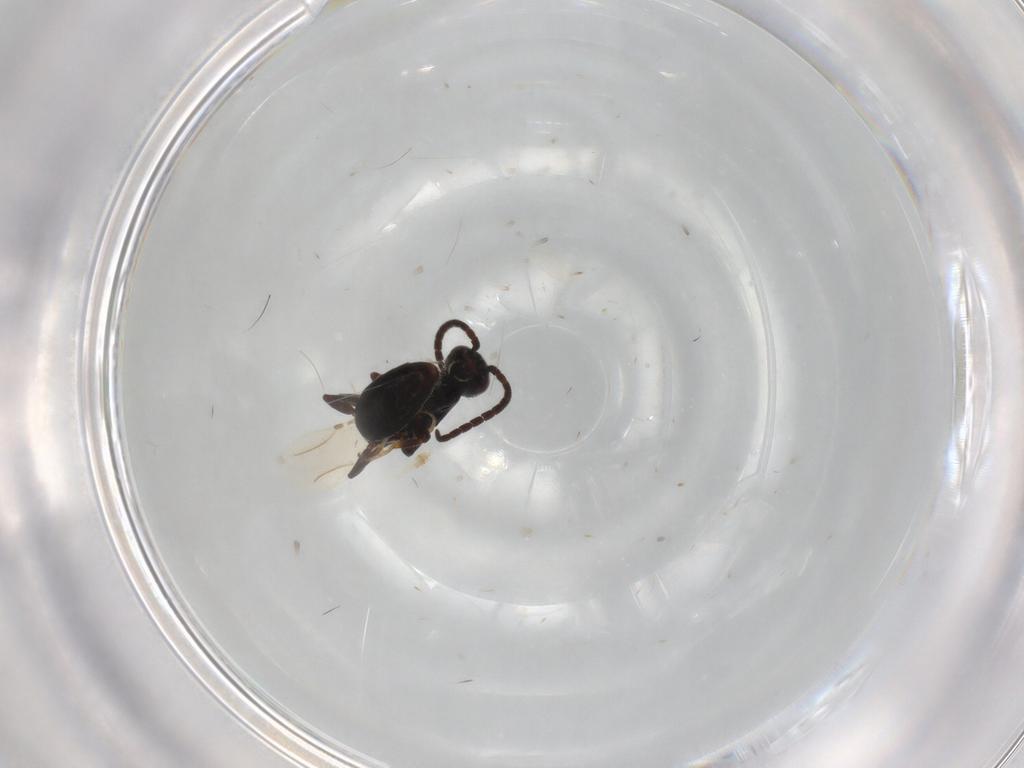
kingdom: Animalia
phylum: Arthropoda
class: Insecta
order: Hymenoptera
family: Bethylidae
